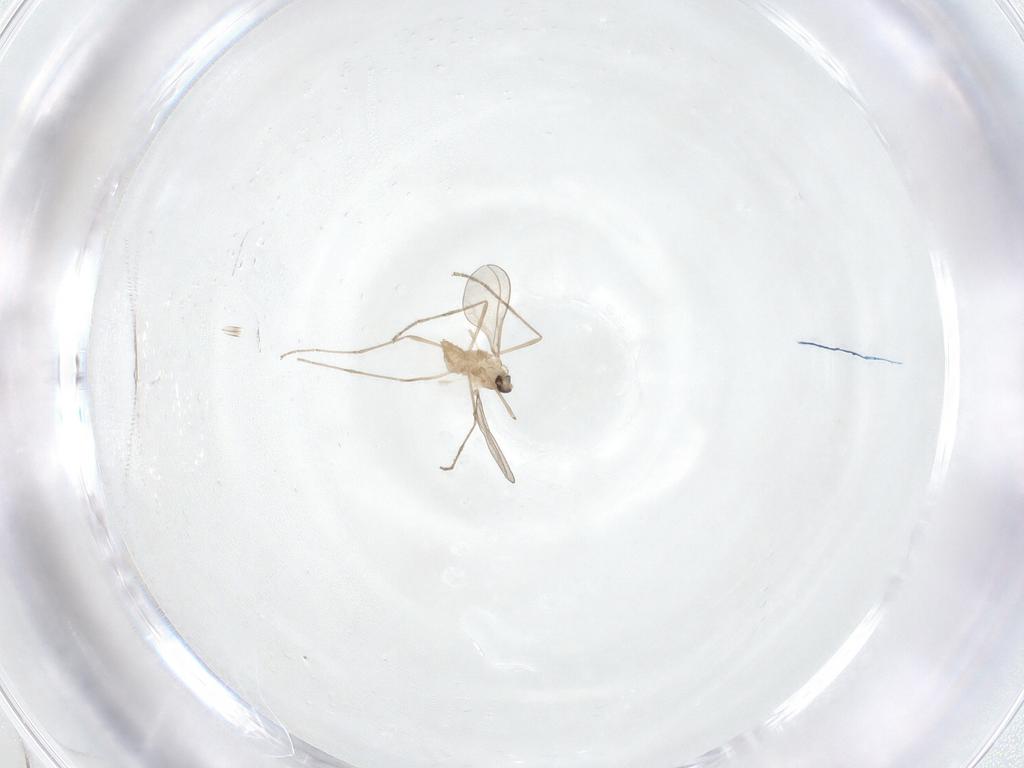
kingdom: Animalia
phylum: Arthropoda
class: Insecta
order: Diptera
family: Cecidomyiidae
